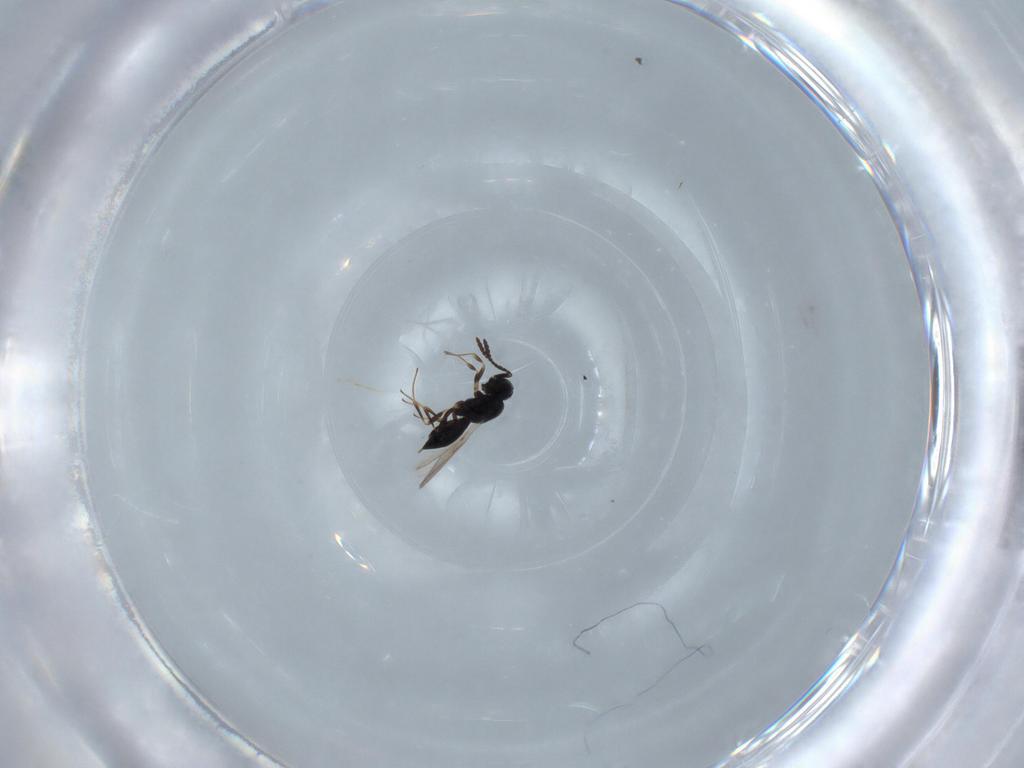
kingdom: Animalia
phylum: Arthropoda
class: Insecta
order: Hymenoptera
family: Scelionidae
